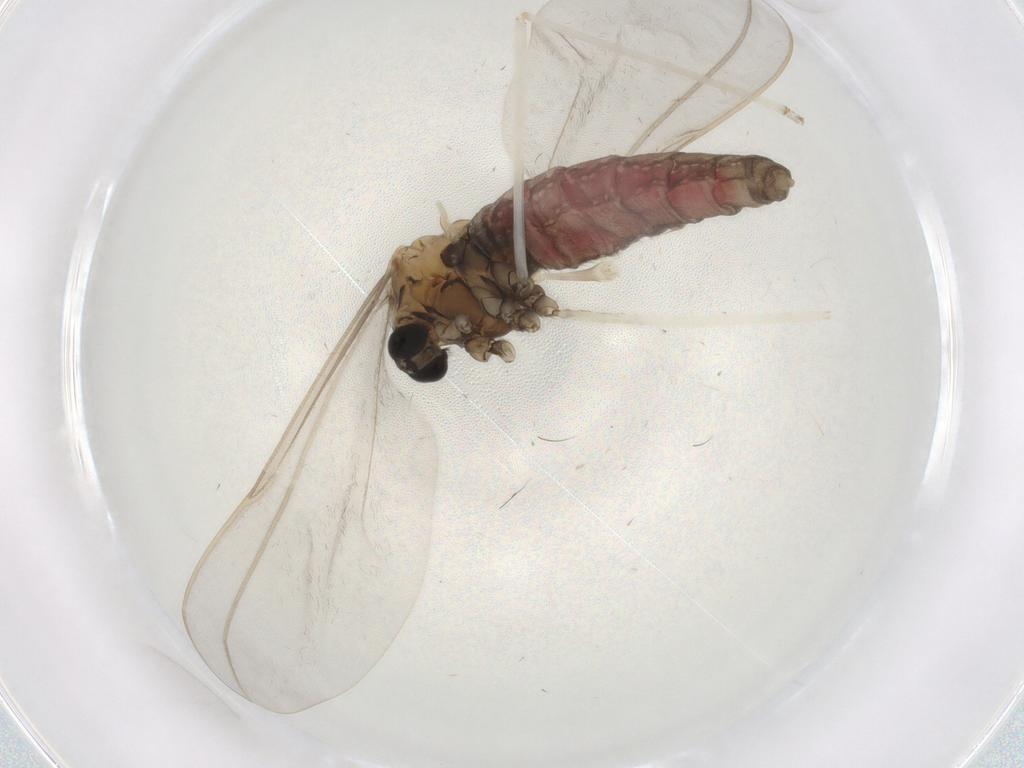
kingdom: Animalia
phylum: Arthropoda
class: Insecta
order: Diptera
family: Cecidomyiidae
